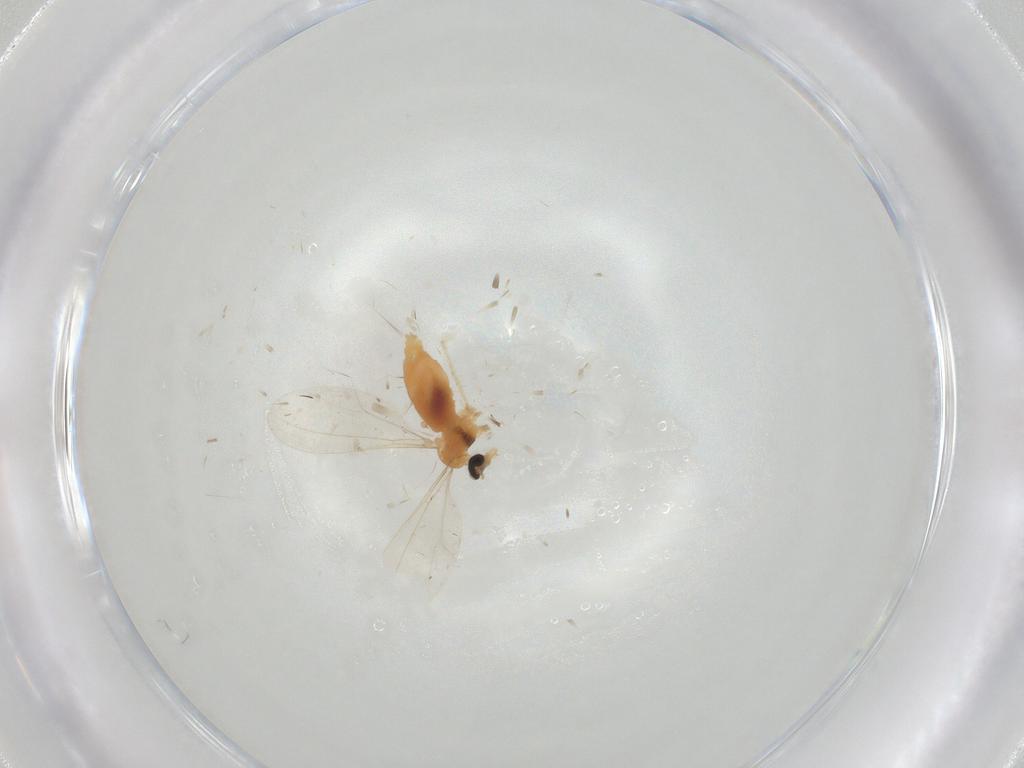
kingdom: Animalia
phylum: Arthropoda
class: Insecta
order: Diptera
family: Cecidomyiidae
